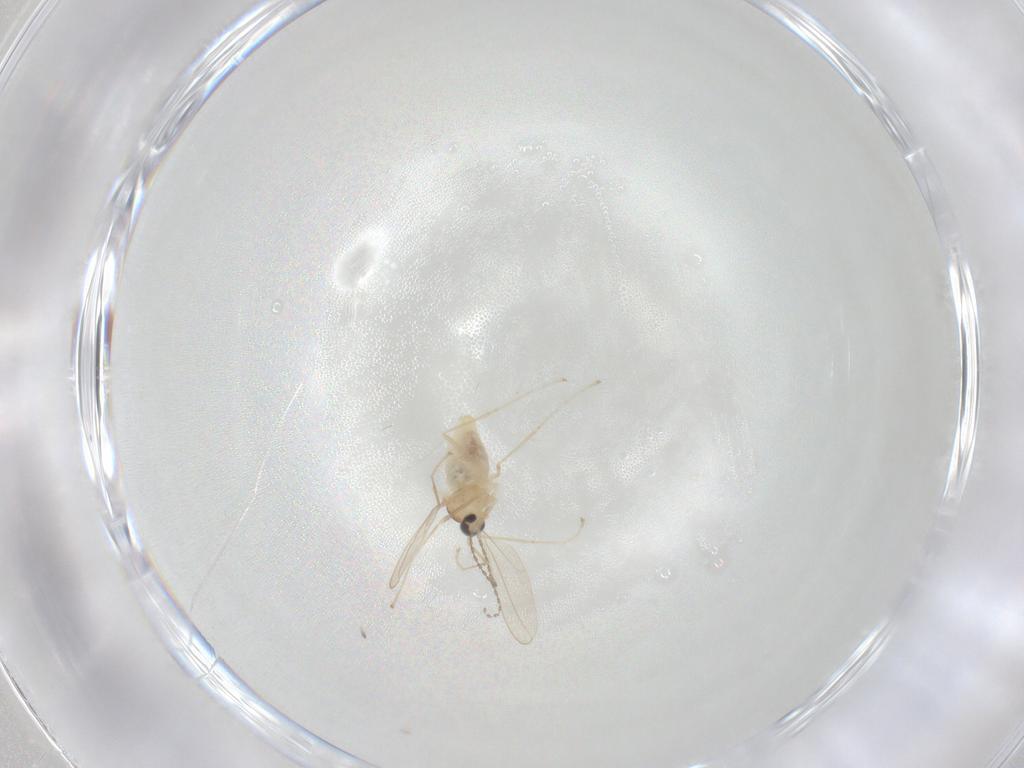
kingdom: Animalia
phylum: Arthropoda
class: Insecta
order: Diptera
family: Cecidomyiidae
